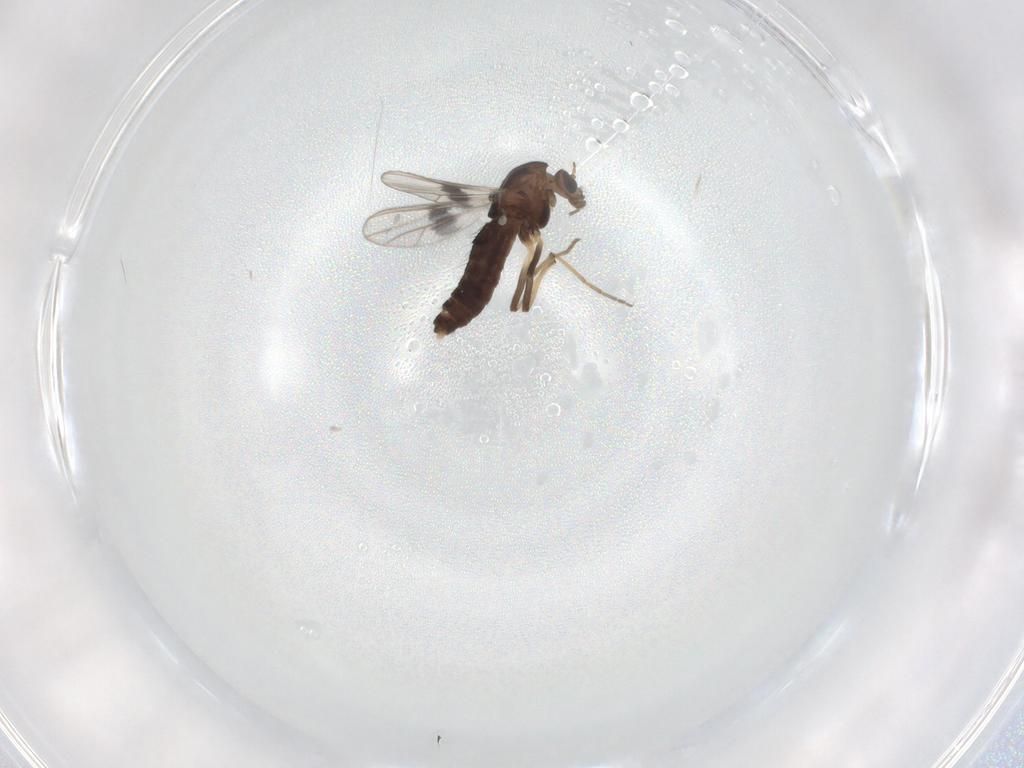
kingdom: Animalia
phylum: Arthropoda
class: Insecta
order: Diptera
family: Chironomidae
